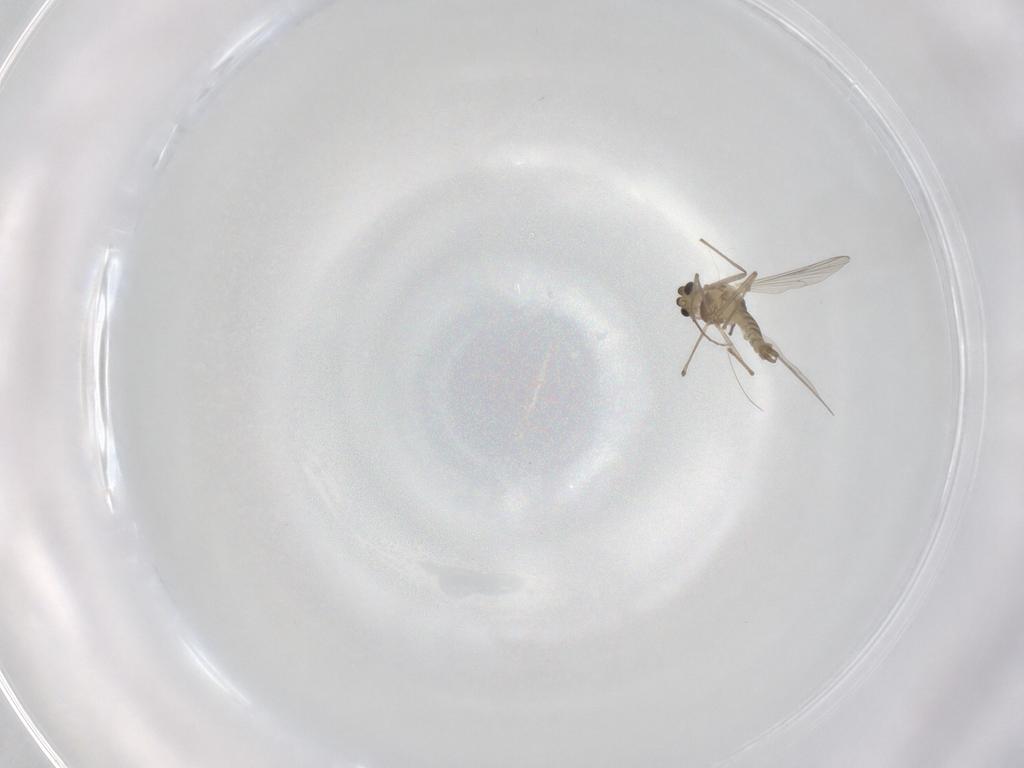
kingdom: Animalia
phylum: Arthropoda
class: Insecta
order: Diptera
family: Chironomidae
